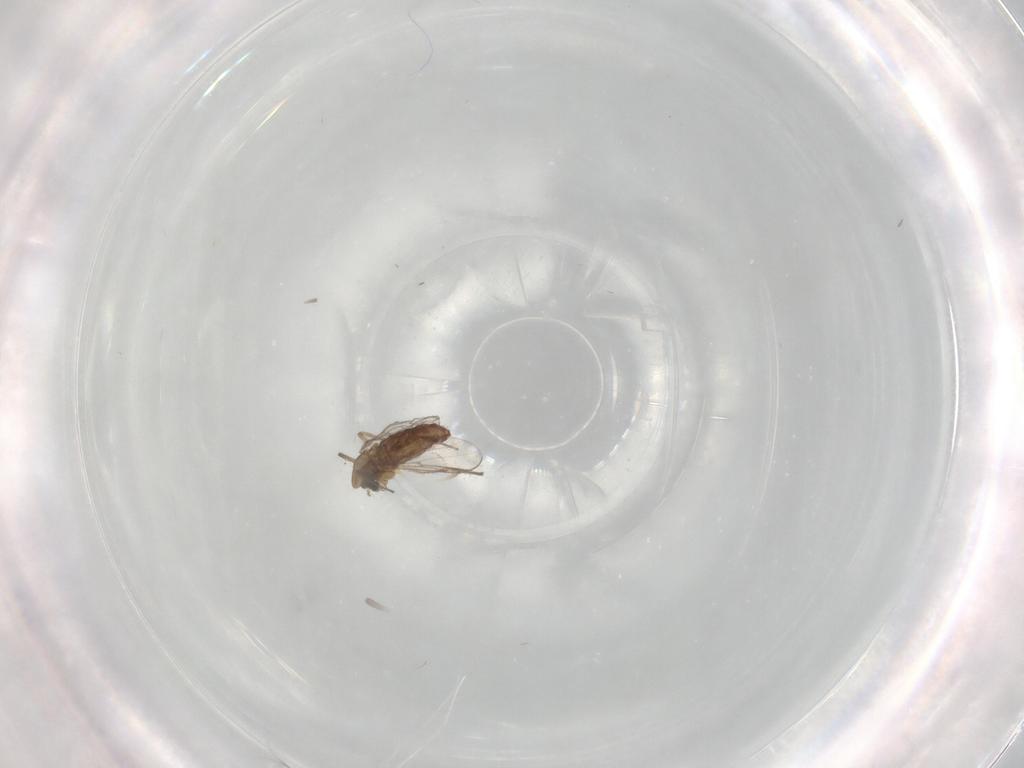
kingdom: Animalia
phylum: Arthropoda
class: Insecta
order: Diptera
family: Chironomidae
